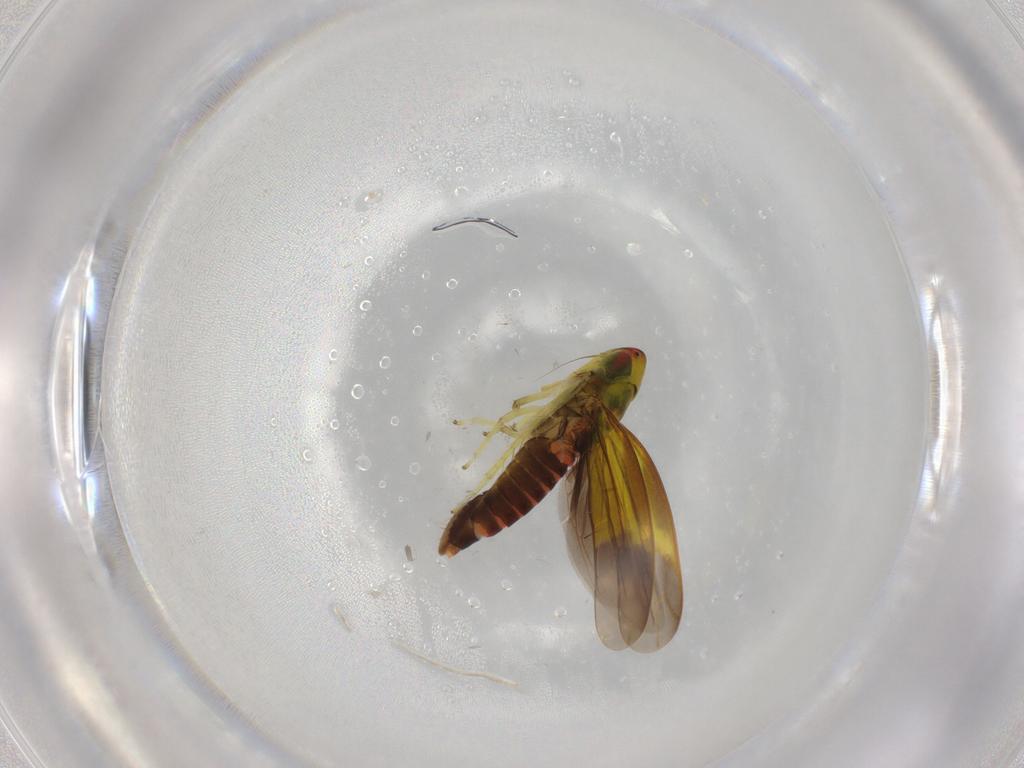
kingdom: Animalia
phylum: Arthropoda
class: Insecta
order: Hemiptera
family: Cicadellidae
